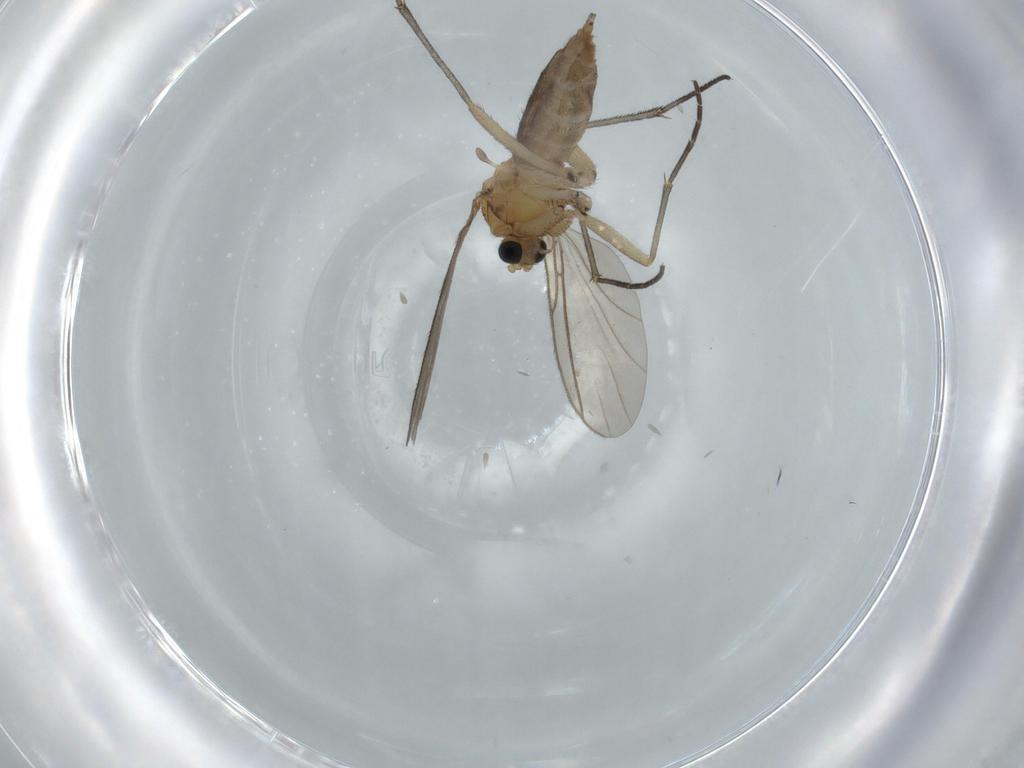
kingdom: Animalia
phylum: Arthropoda
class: Insecta
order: Diptera
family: Sciaridae
